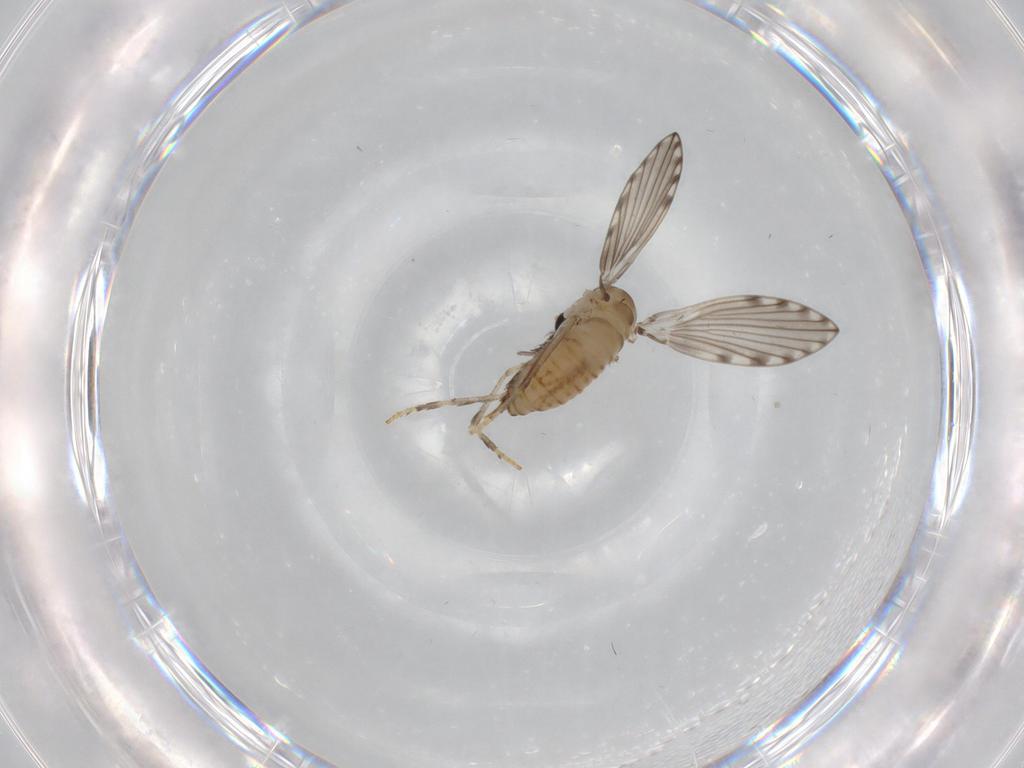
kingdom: Animalia
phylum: Arthropoda
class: Insecta
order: Diptera
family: Psychodidae
